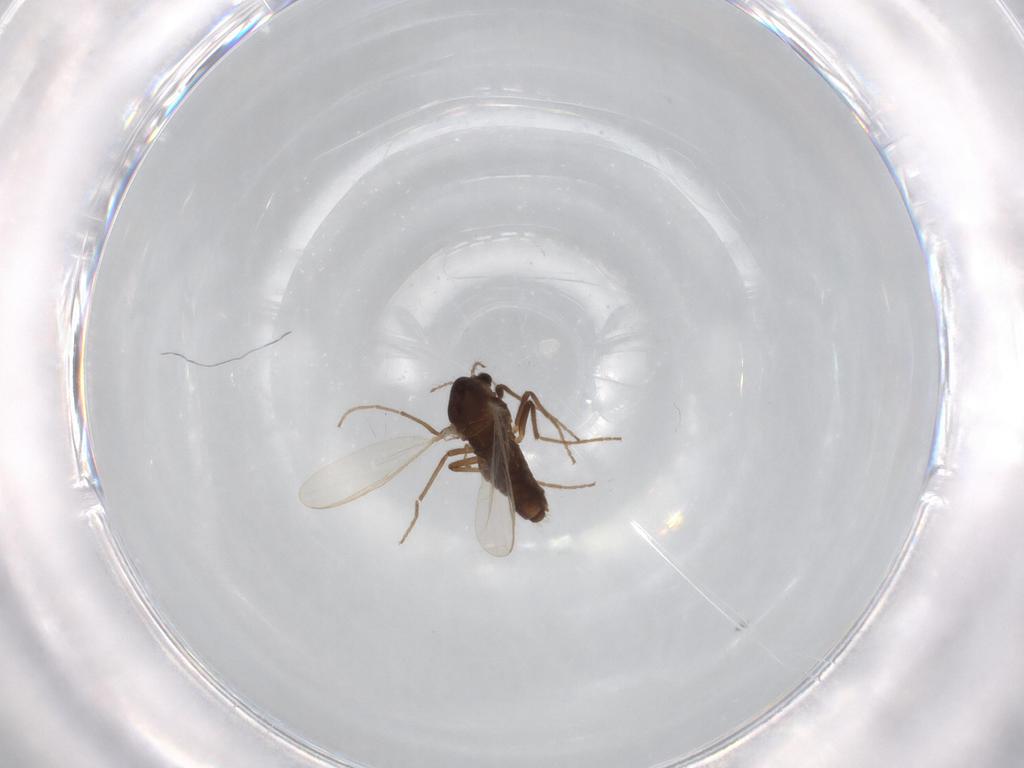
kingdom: Animalia
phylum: Arthropoda
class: Insecta
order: Diptera
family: Chironomidae
